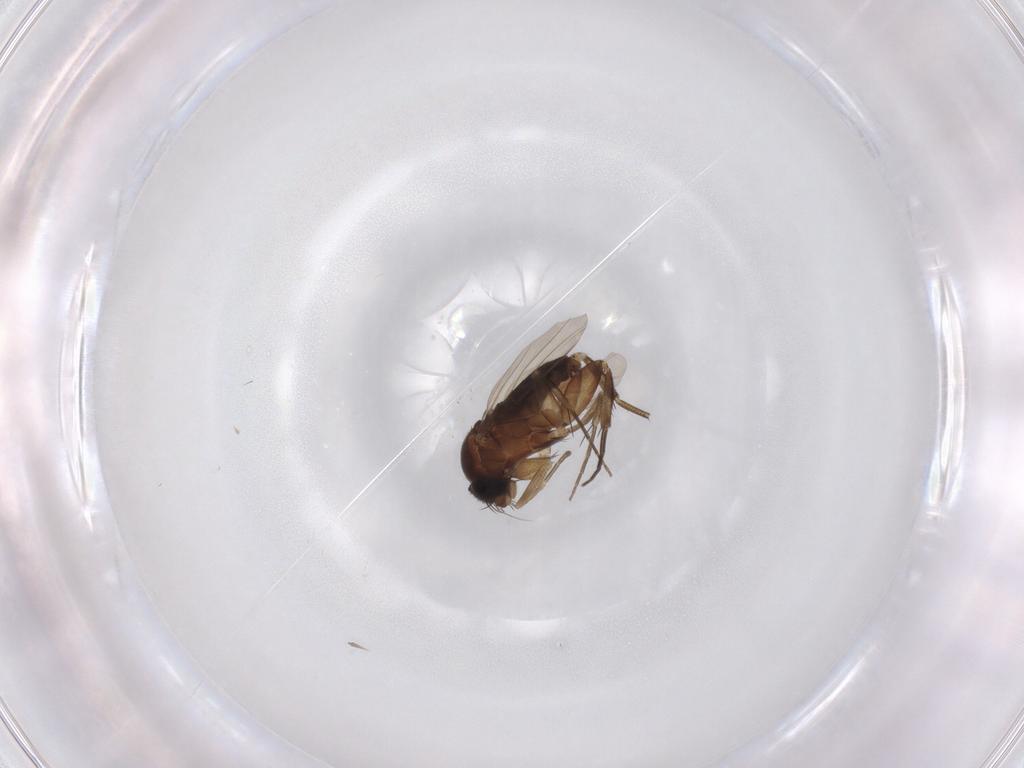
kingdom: Animalia
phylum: Arthropoda
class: Insecta
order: Diptera
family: Phoridae
